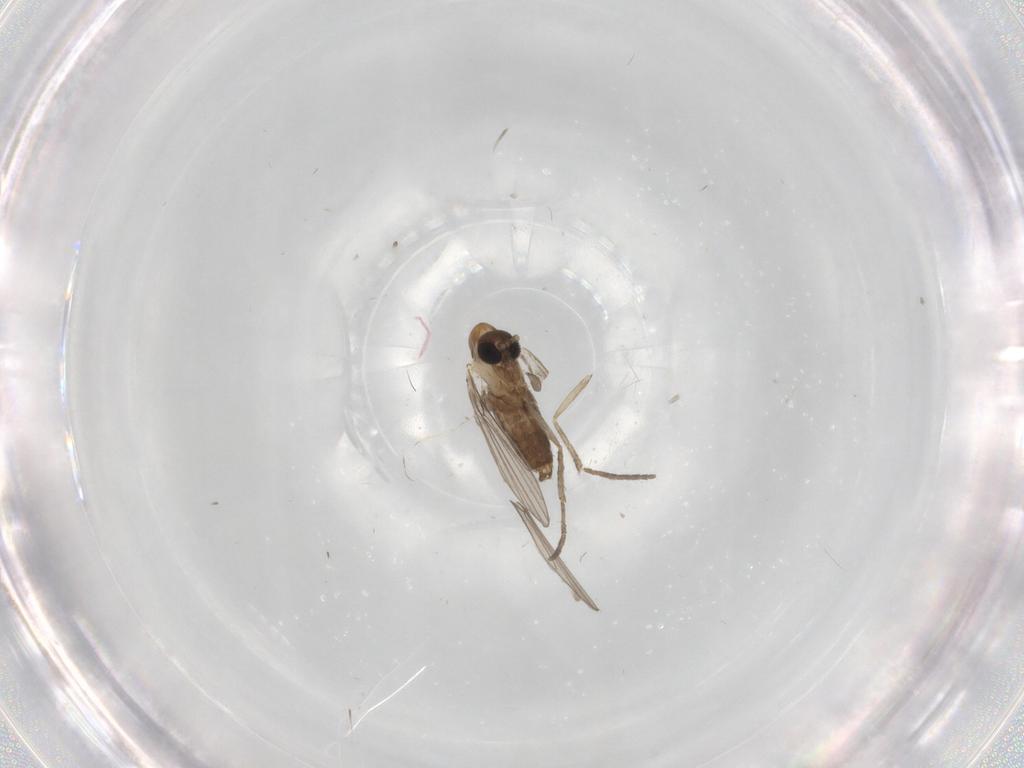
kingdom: Animalia
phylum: Arthropoda
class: Insecta
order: Diptera
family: Psychodidae
